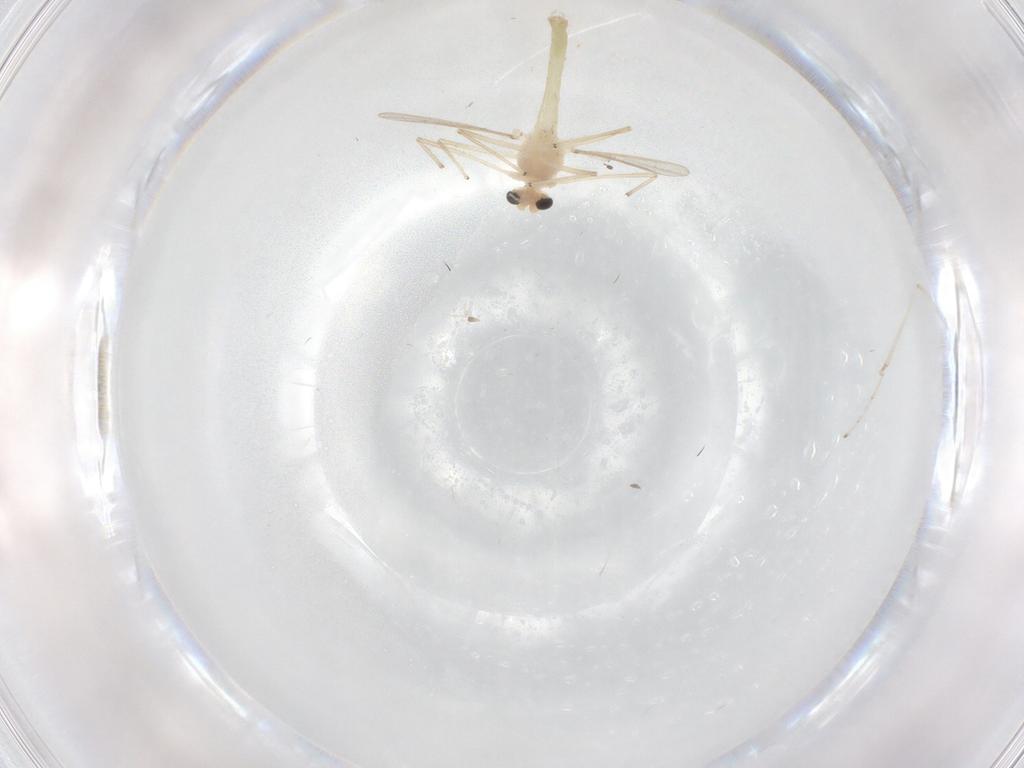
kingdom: Animalia
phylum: Arthropoda
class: Insecta
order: Diptera
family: Chironomidae
